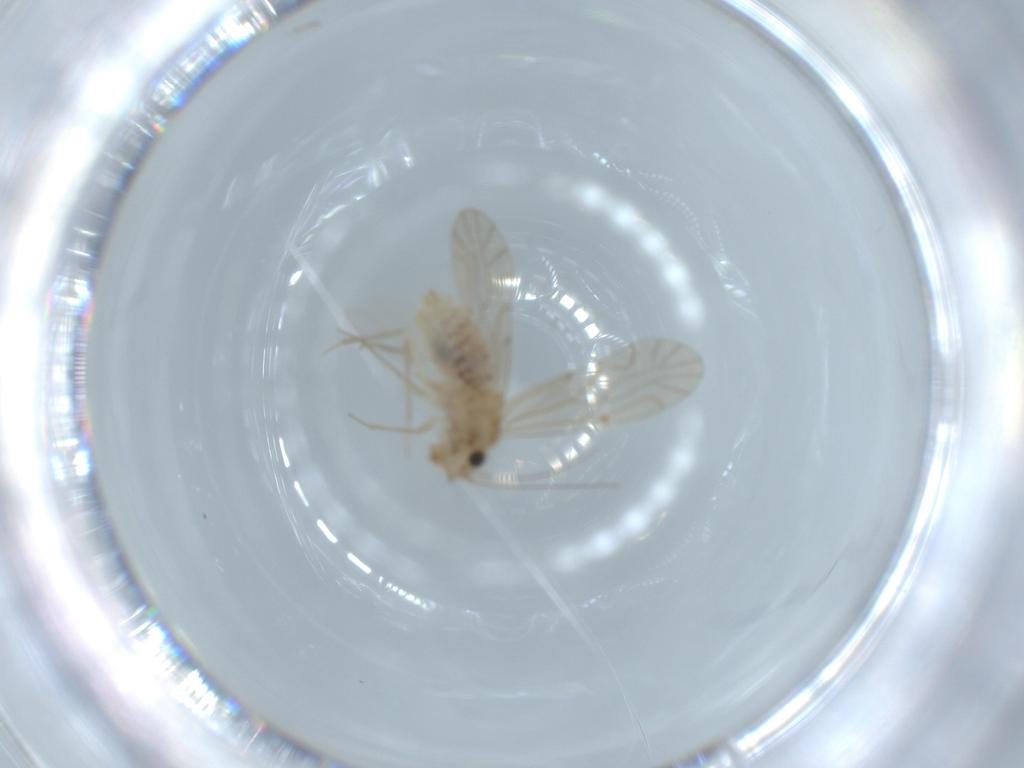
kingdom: Animalia
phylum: Arthropoda
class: Insecta
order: Psocodea
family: Lachesillidae
